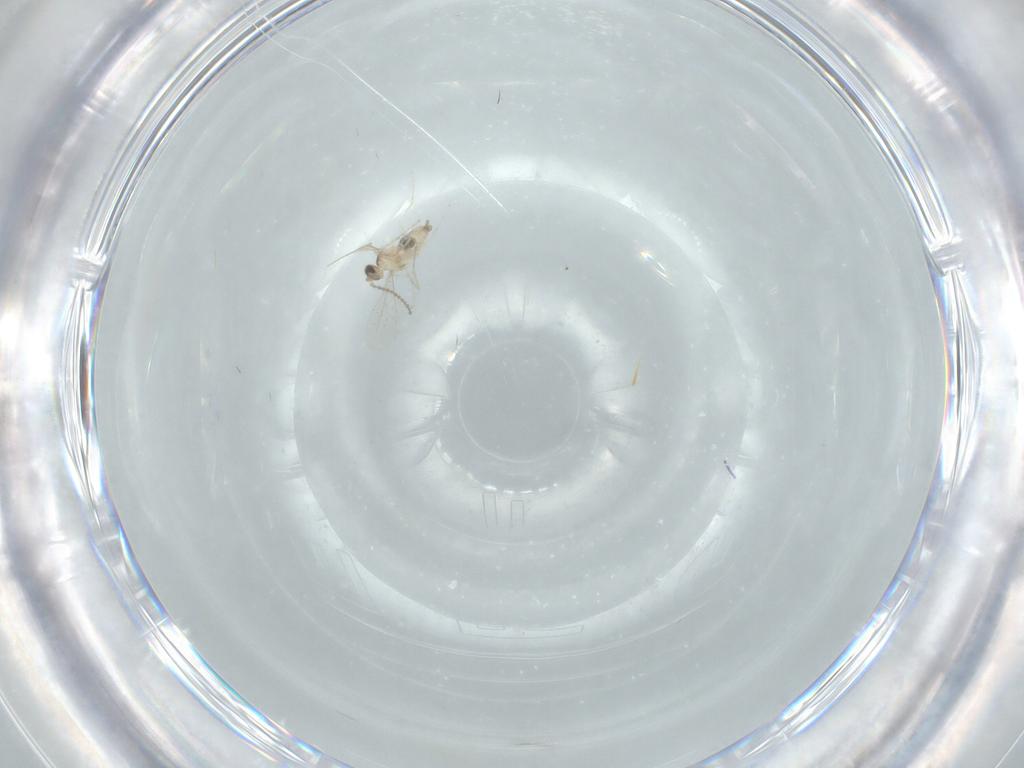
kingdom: Animalia
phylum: Arthropoda
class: Insecta
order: Diptera
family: Cecidomyiidae
